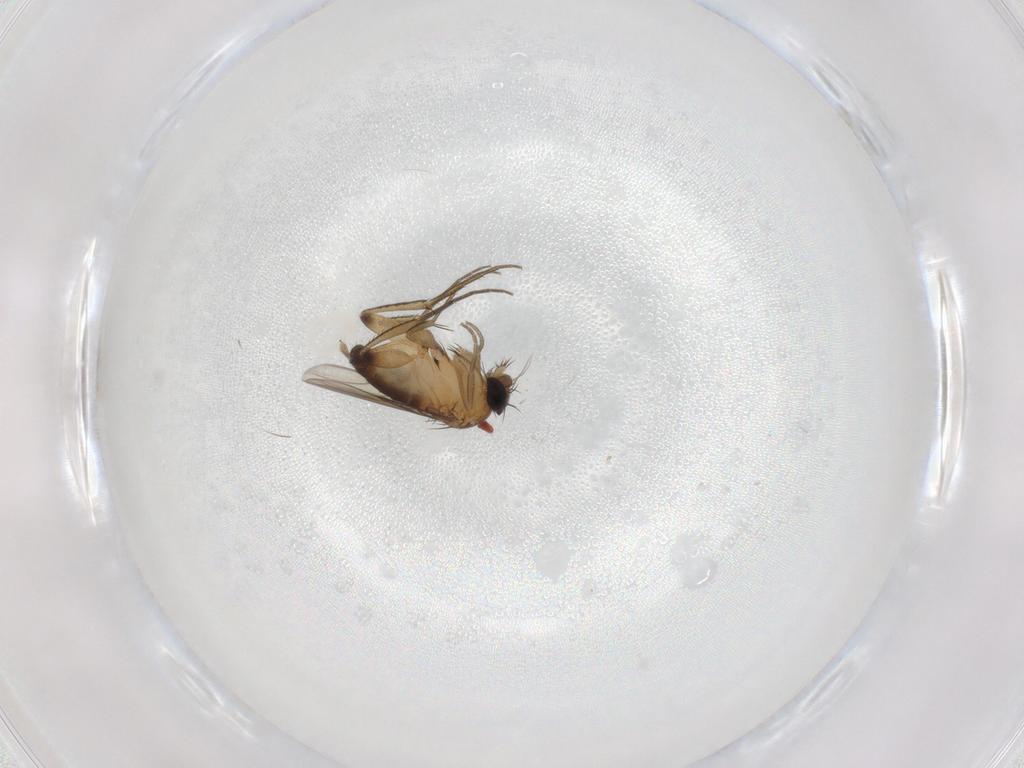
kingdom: Animalia
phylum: Arthropoda
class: Insecta
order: Diptera
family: Chironomidae
